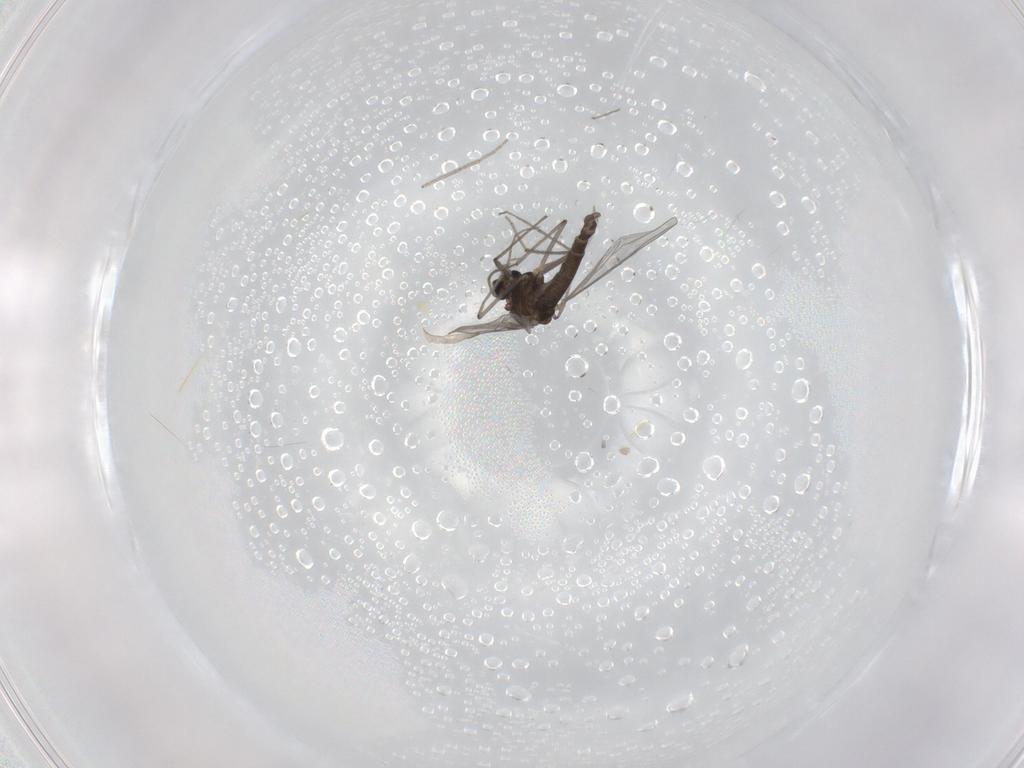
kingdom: Animalia
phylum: Arthropoda
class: Insecta
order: Diptera
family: Chironomidae
